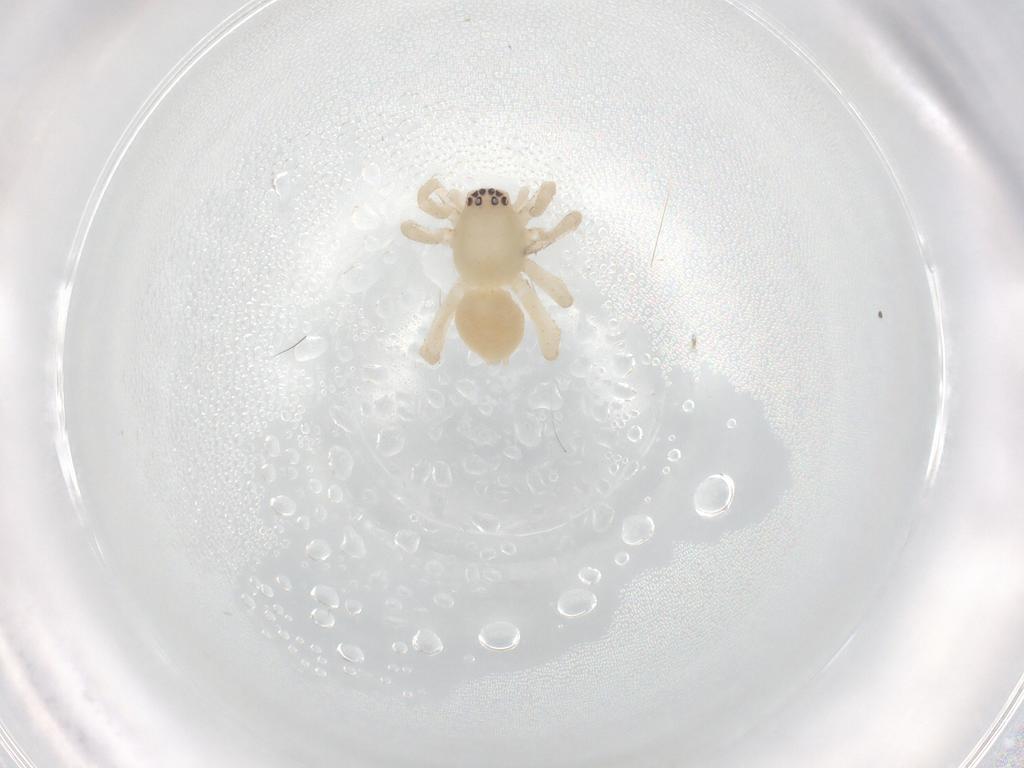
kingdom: Animalia
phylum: Arthropoda
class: Arachnida
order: Araneae
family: Clubionidae
